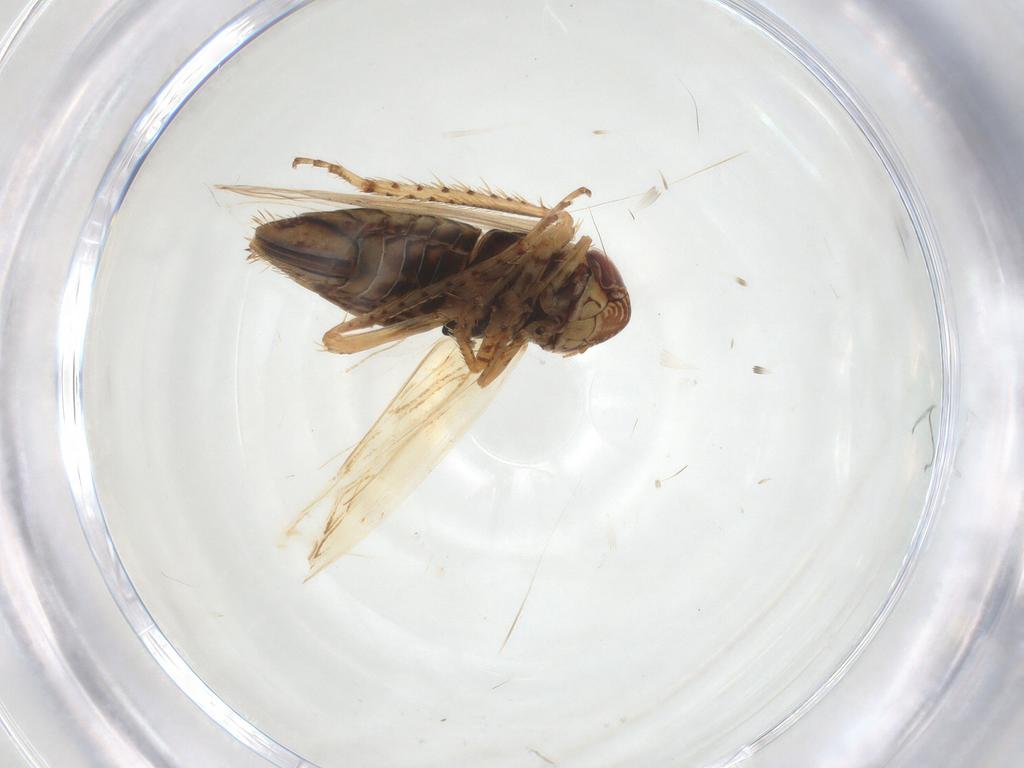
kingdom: Animalia
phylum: Arthropoda
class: Insecta
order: Hemiptera
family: Cicadellidae
